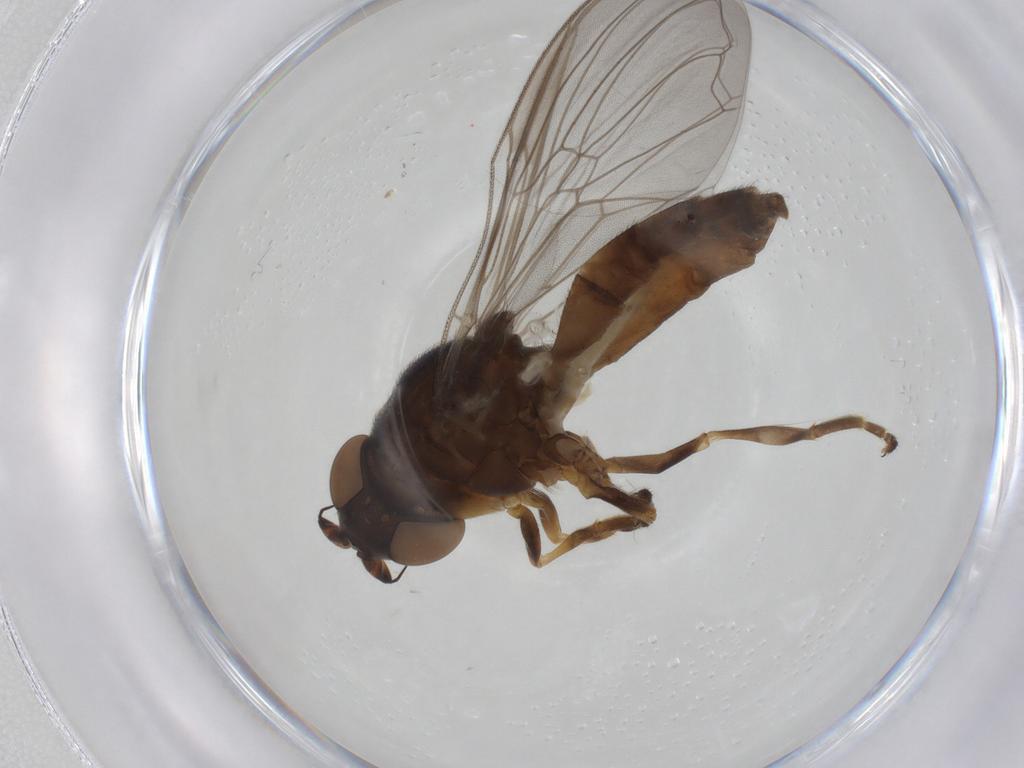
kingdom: Animalia
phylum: Arthropoda
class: Insecta
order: Diptera
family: Syrphidae
